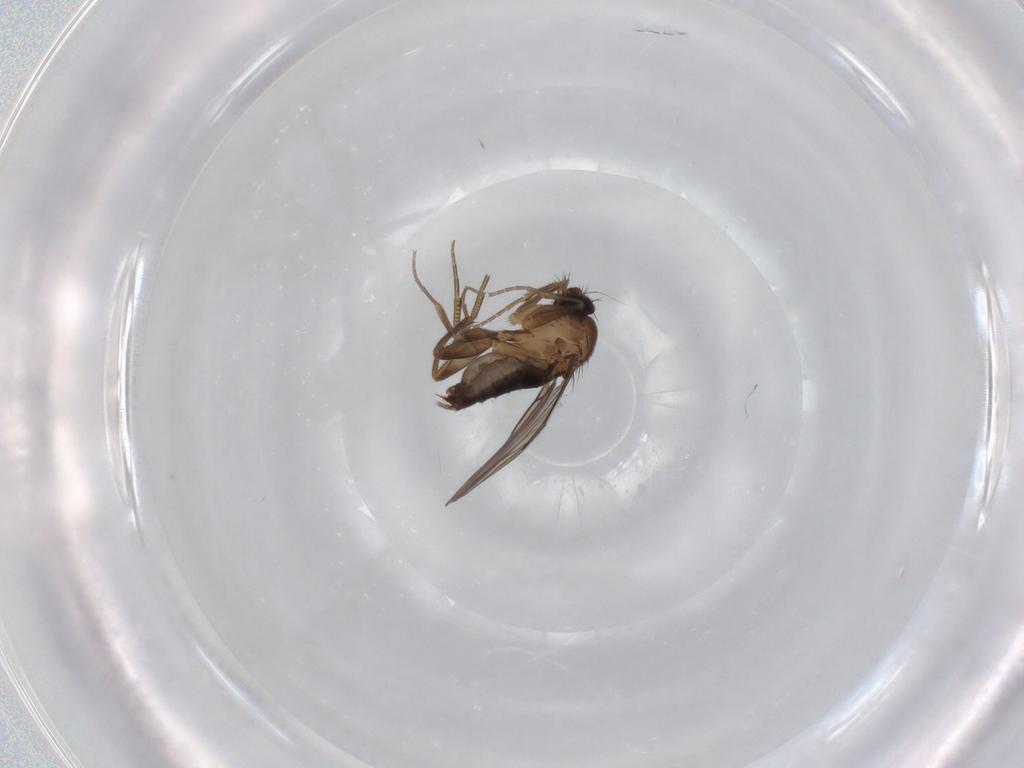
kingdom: Animalia
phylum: Arthropoda
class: Insecta
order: Diptera
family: Phoridae
